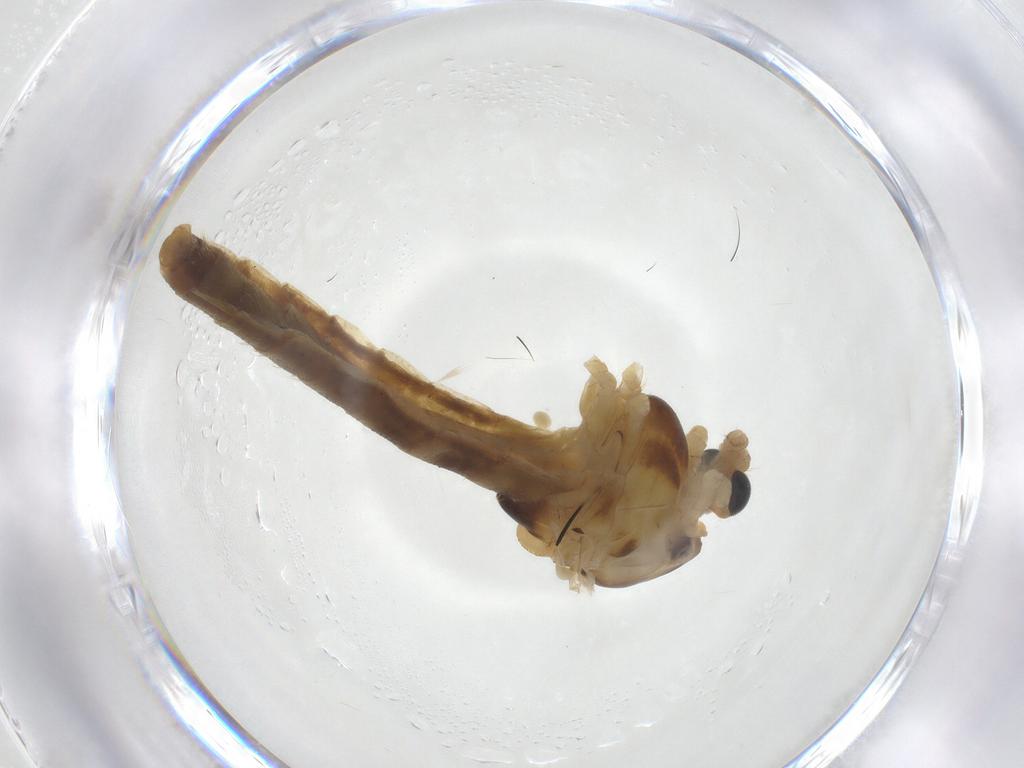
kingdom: Animalia
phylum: Arthropoda
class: Insecta
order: Diptera
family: Chironomidae
